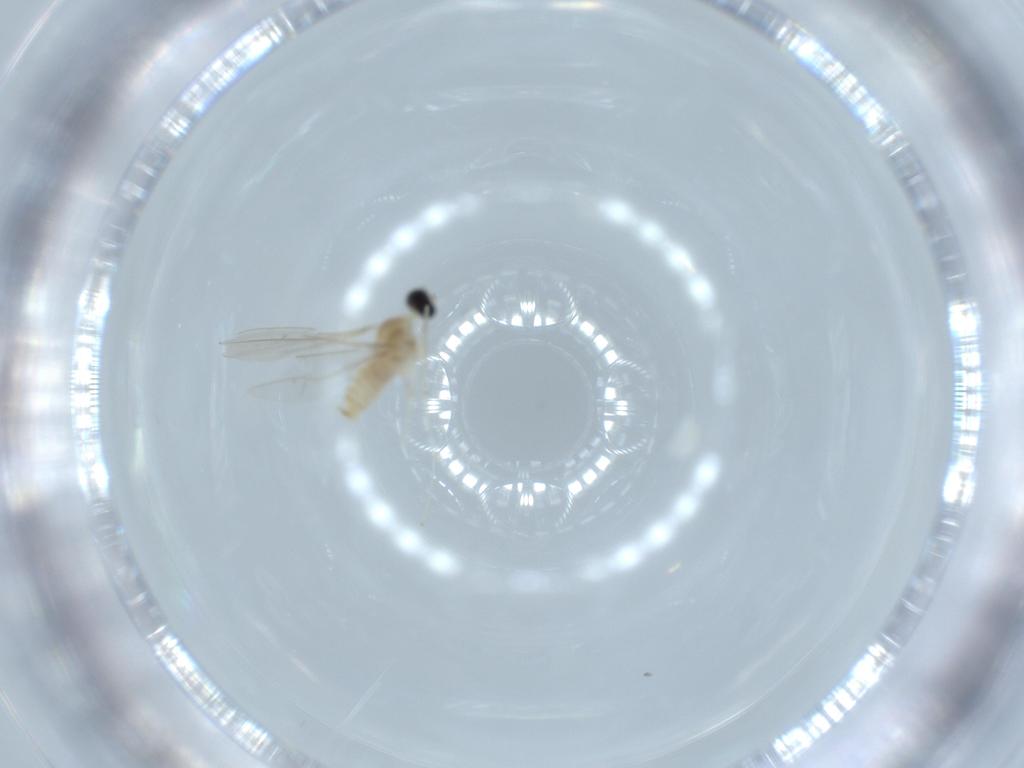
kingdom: Animalia
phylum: Arthropoda
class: Insecta
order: Diptera
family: Cecidomyiidae
